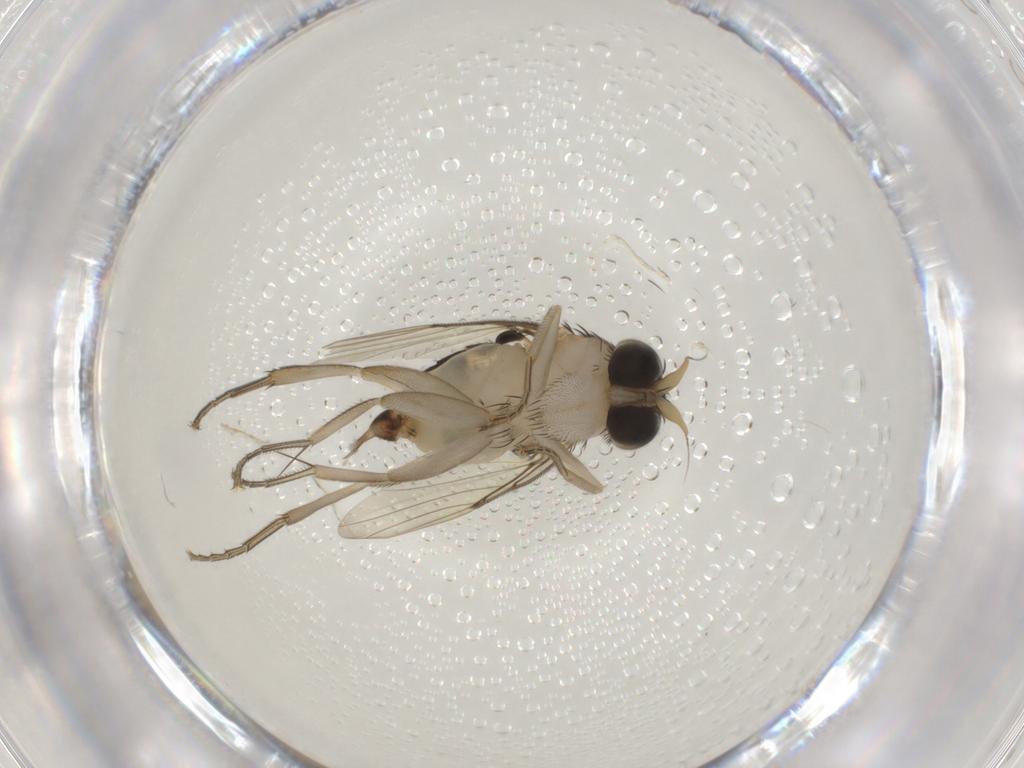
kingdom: Animalia
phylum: Arthropoda
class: Insecta
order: Diptera
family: Phoridae
